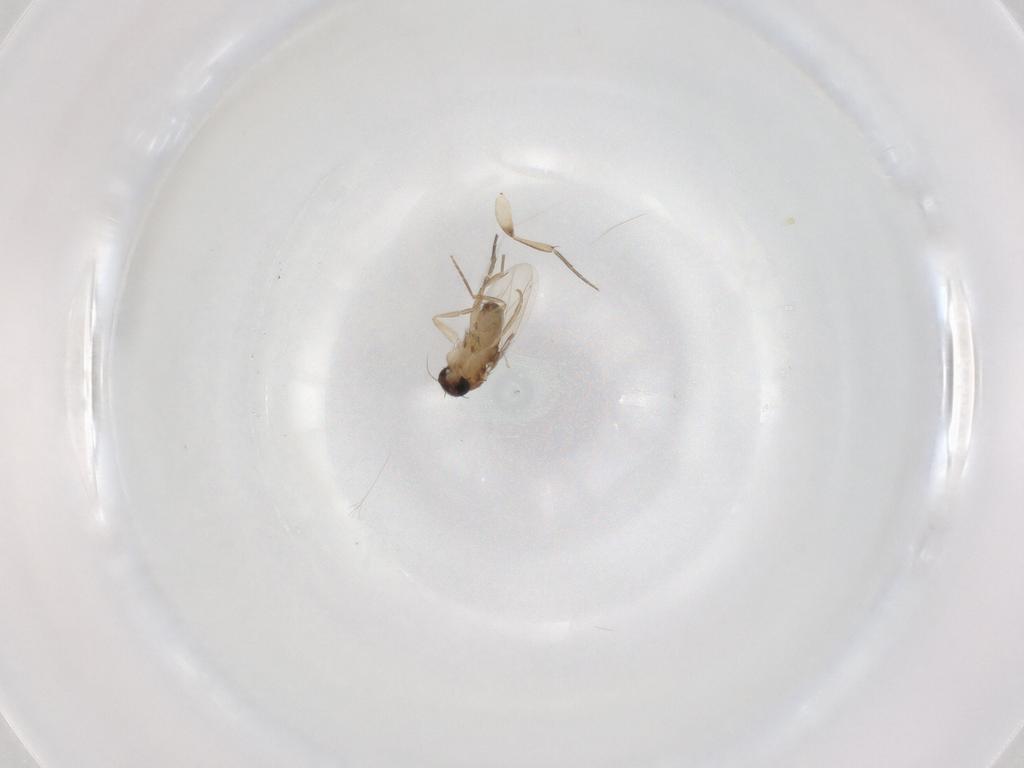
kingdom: Animalia
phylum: Arthropoda
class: Insecta
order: Diptera
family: Phoridae
